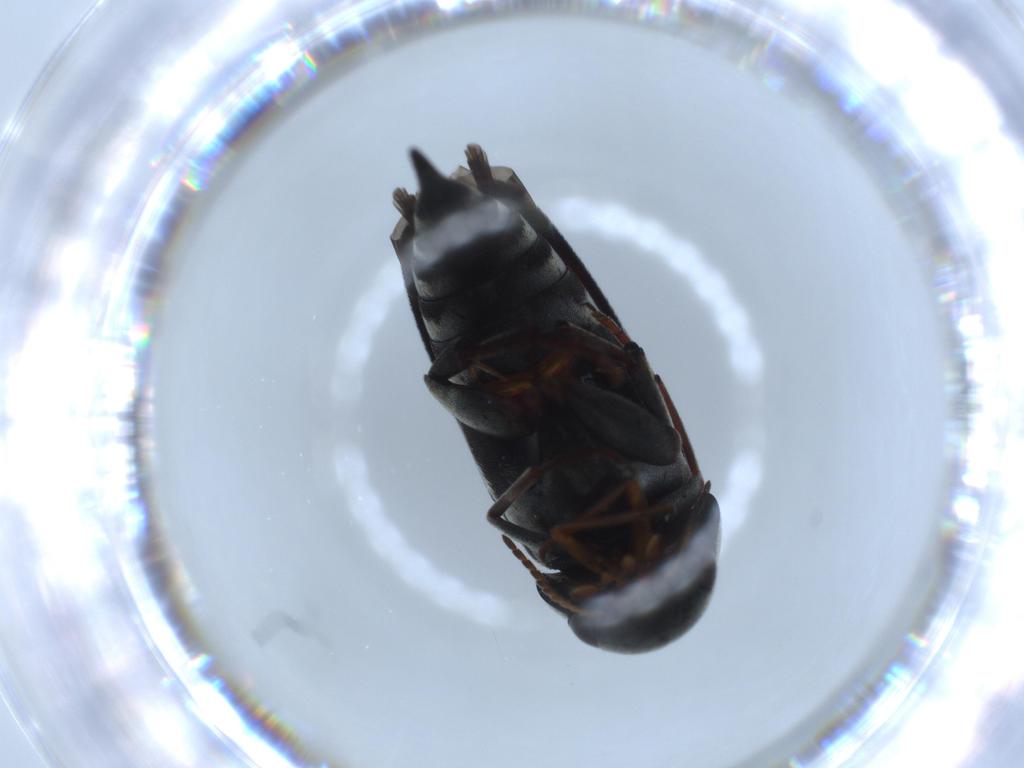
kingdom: Animalia
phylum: Arthropoda
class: Insecta
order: Coleoptera
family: Mordellidae
